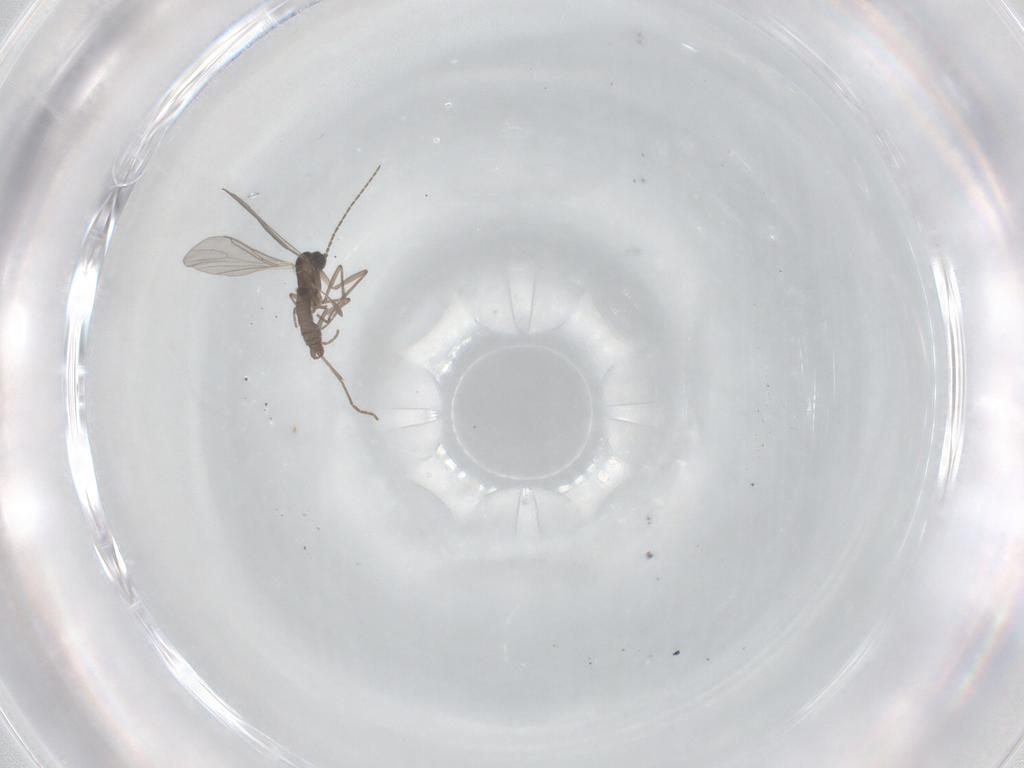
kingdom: Animalia
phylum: Arthropoda
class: Insecta
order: Diptera
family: Sciaridae
